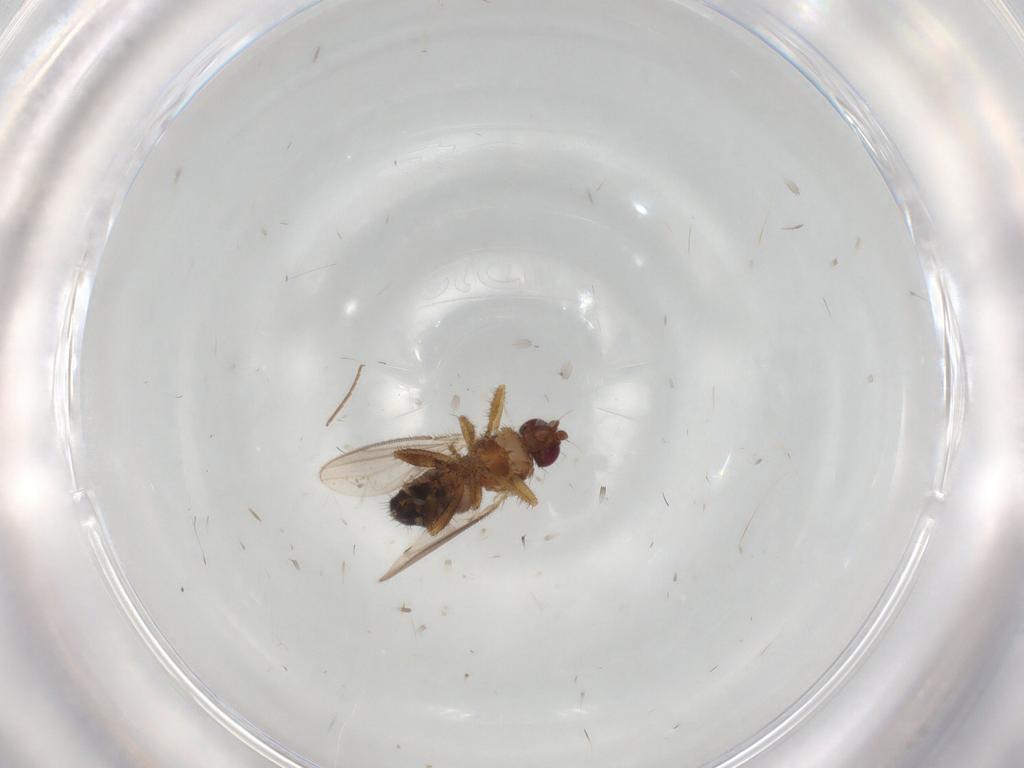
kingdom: Animalia
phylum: Arthropoda
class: Insecta
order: Diptera
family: Sphaeroceridae
